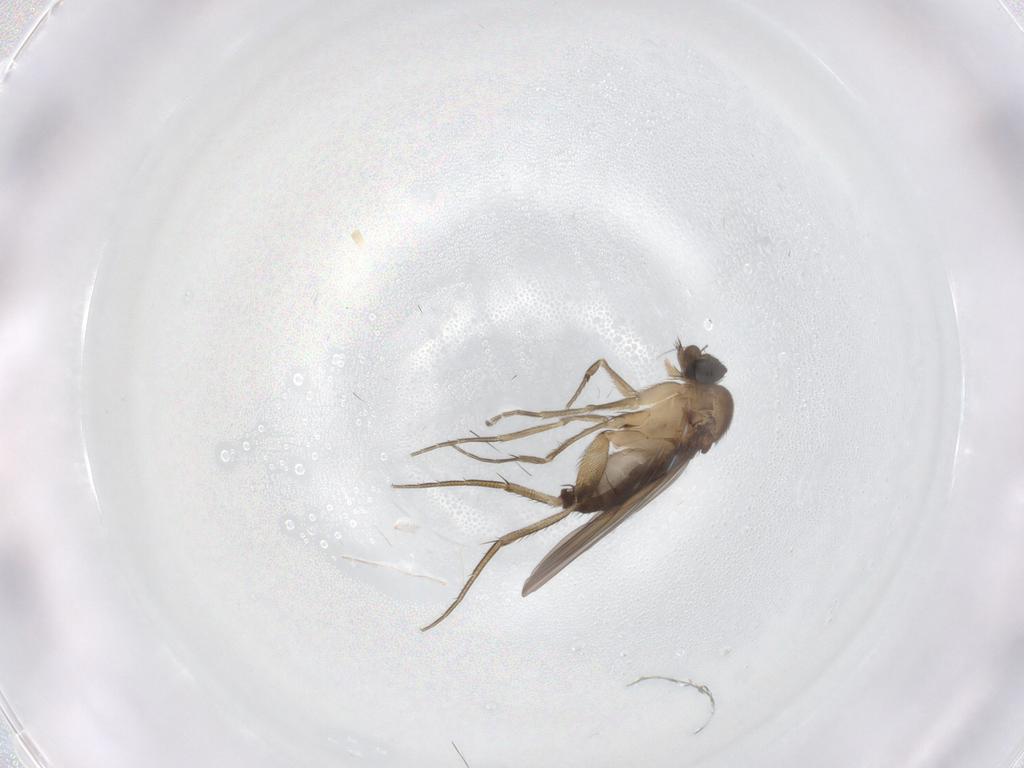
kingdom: Animalia
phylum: Arthropoda
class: Insecta
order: Diptera
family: Phoridae
